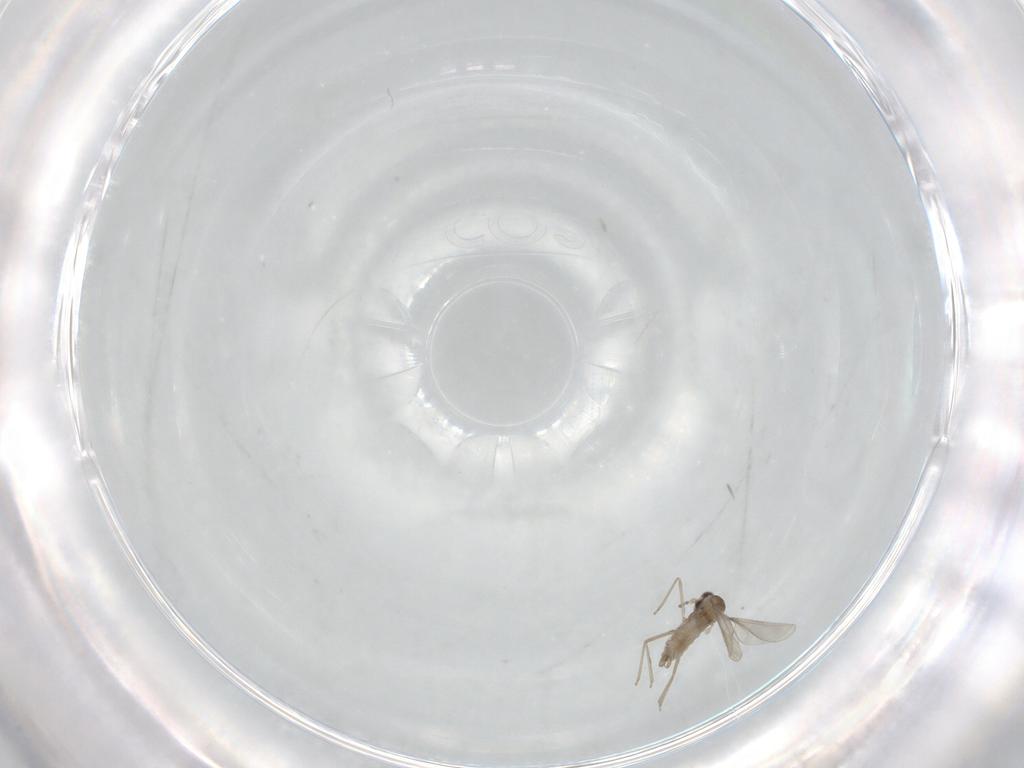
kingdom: Animalia
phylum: Arthropoda
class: Insecta
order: Diptera
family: Cecidomyiidae
